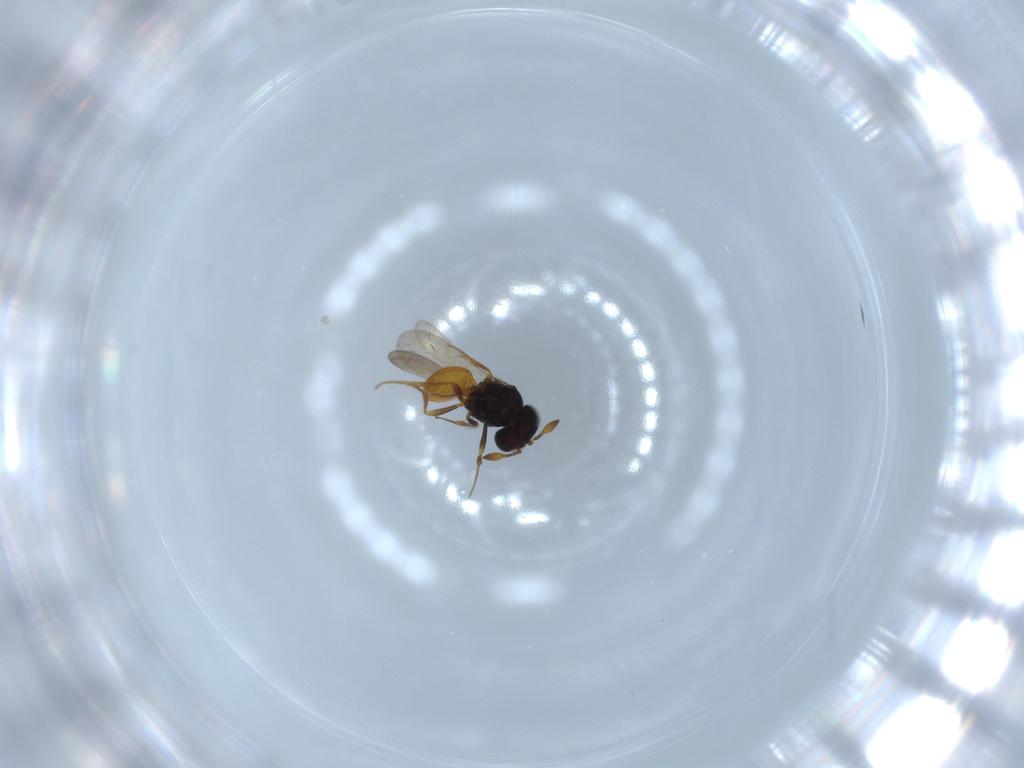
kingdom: Animalia
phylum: Arthropoda
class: Insecta
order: Hymenoptera
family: Scelionidae
